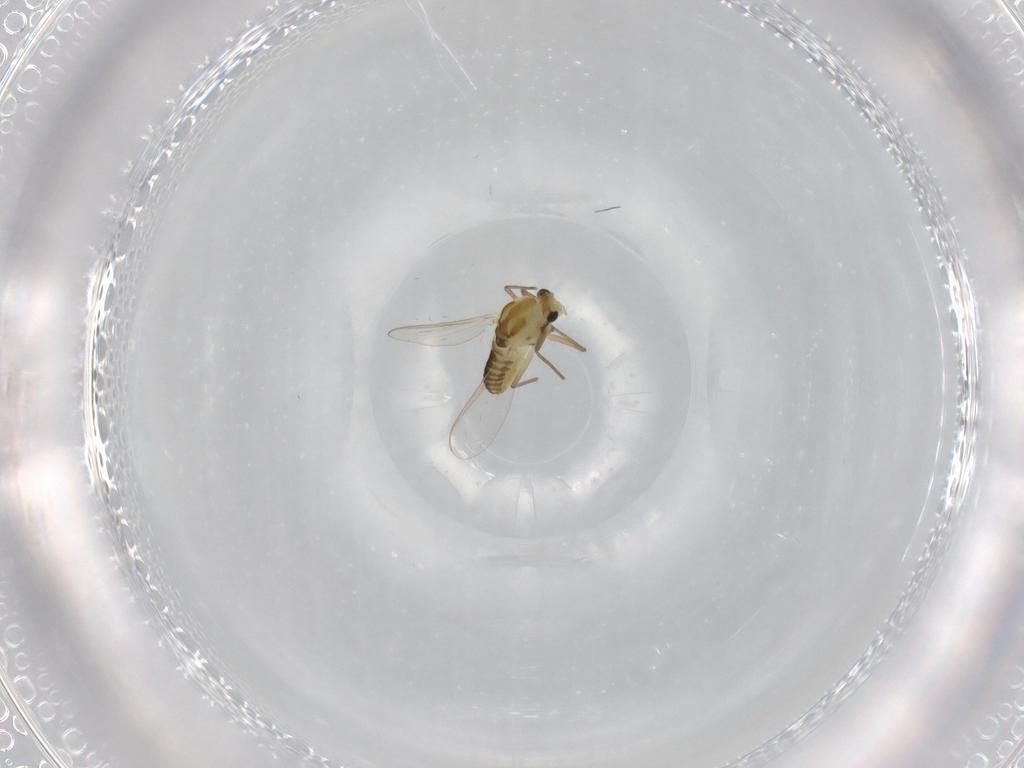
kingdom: Animalia
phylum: Arthropoda
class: Insecta
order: Diptera
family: Chironomidae
